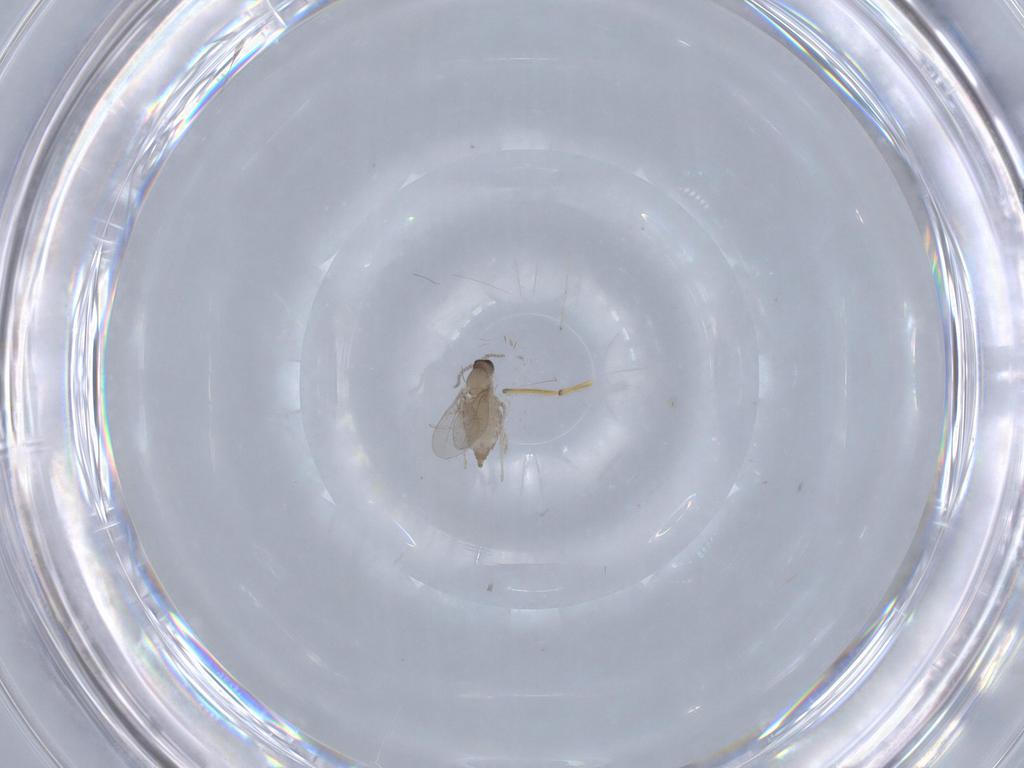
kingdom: Animalia
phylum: Arthropoda
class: Insecta
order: Diptera
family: Cecidomyiidae
